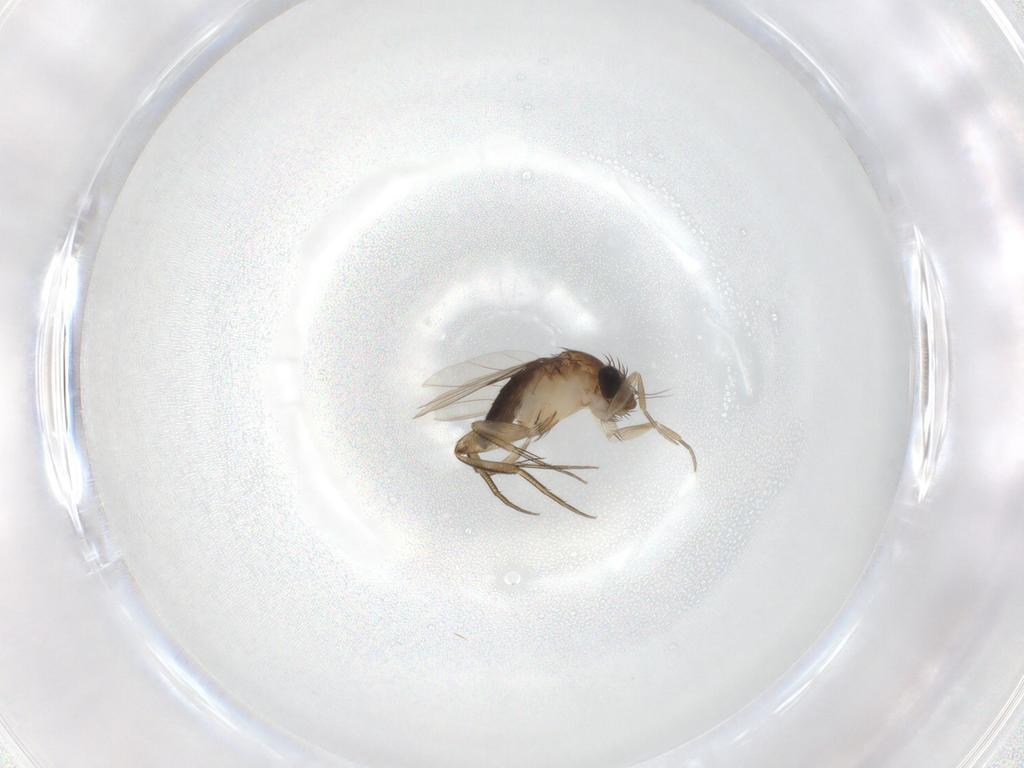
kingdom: Animalia
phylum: Arthropoda
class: Insecta
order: Diptera
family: Phoridae
